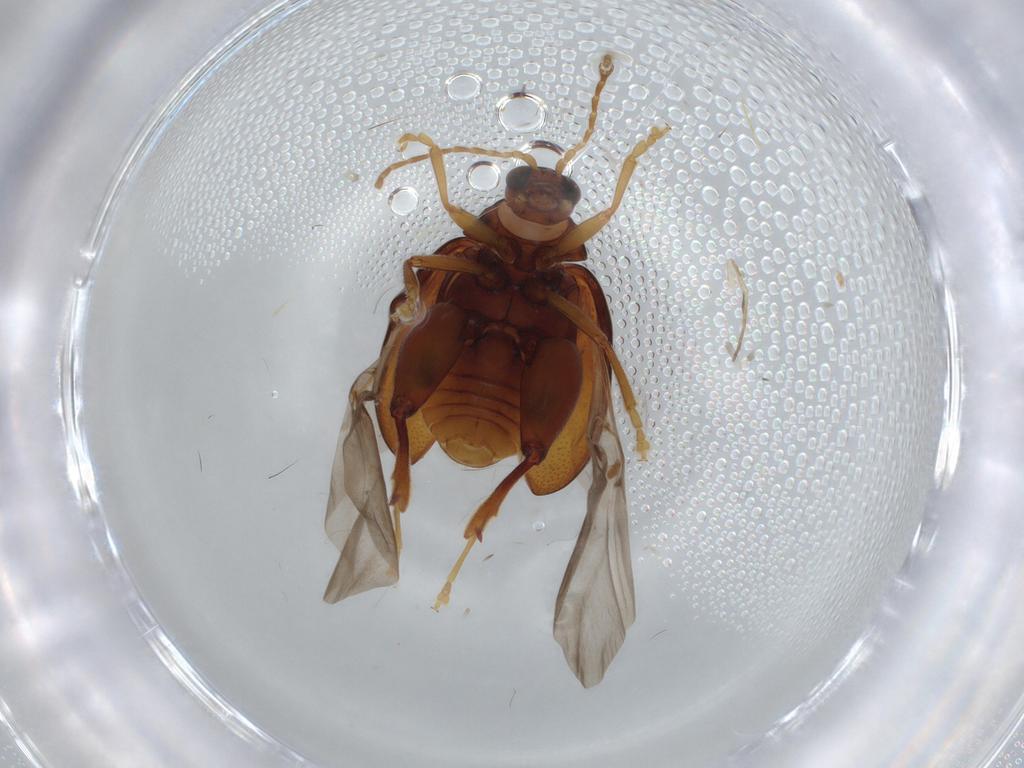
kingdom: Animalia
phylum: Arthropoda
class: Insecta
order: Coleoptera
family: Chrysomelidae
